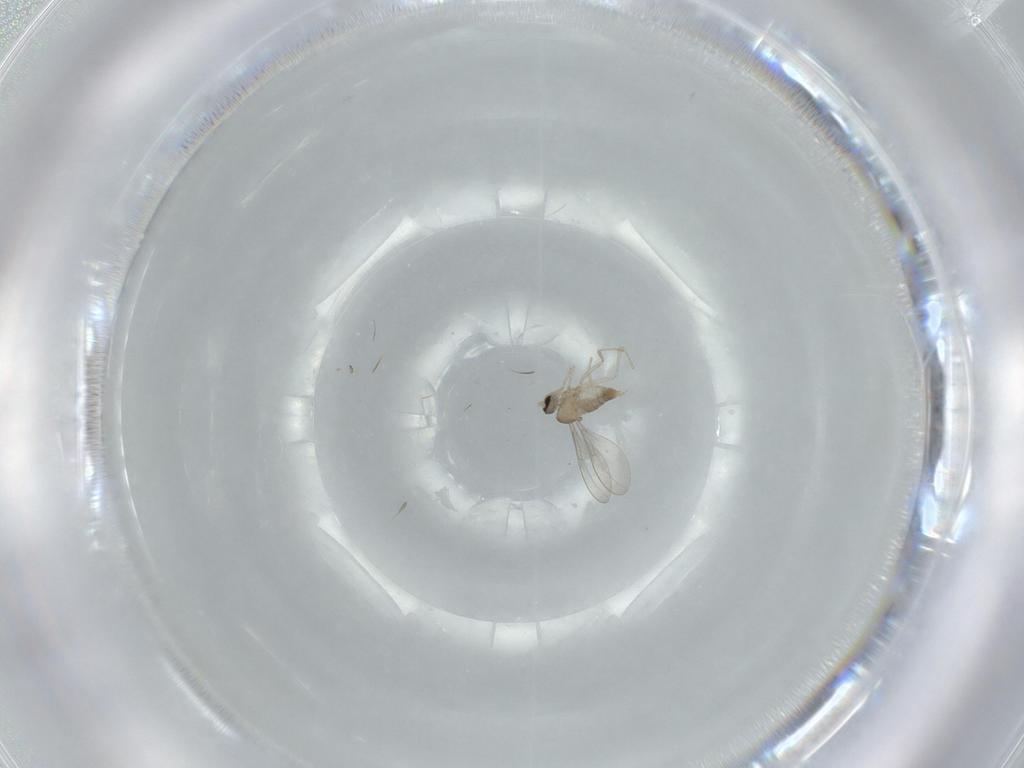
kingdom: Animalia
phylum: Arthropoda
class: Insecta
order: Diptera
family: Cecidomyiidae
